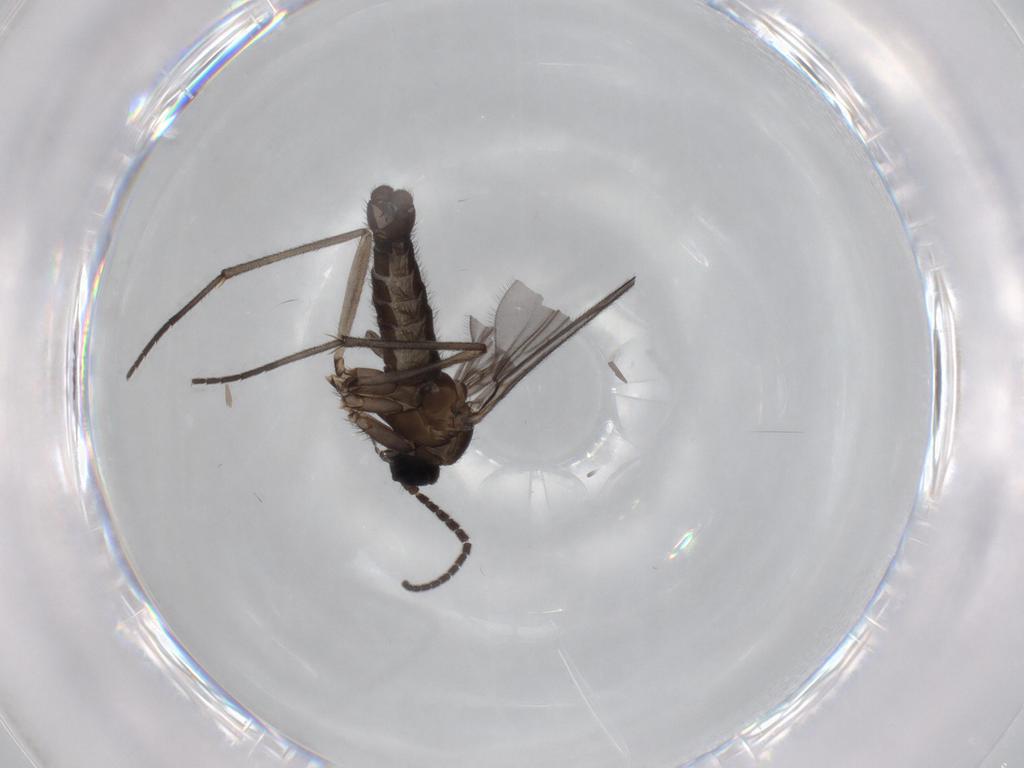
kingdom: Animalia
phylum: Arthropoda
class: Insecta
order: Diptera
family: Sciaridae
